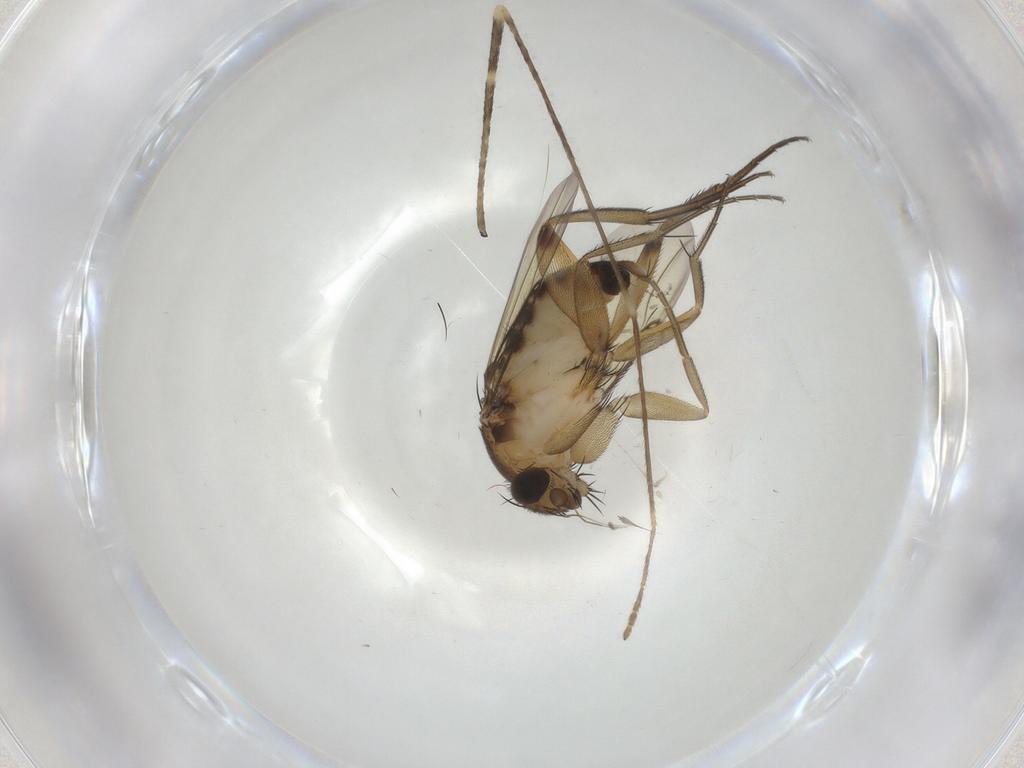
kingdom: Animalia
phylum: Arthropoda
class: Insecta
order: Diptera
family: Phoridae
